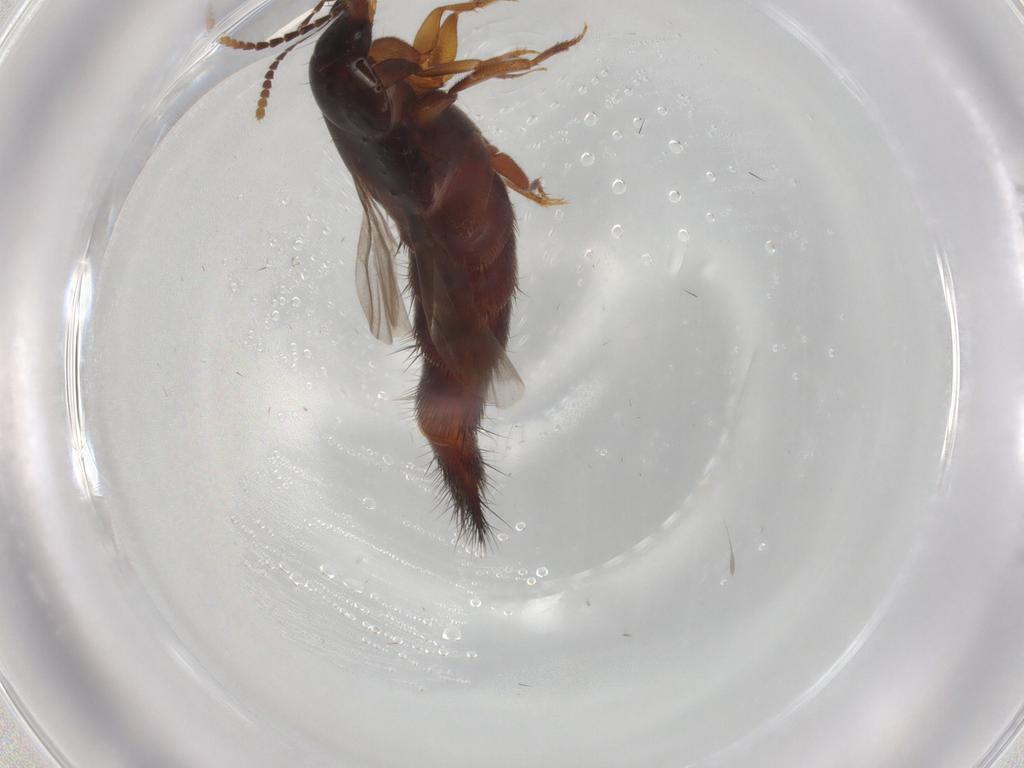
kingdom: Animalia
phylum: Arthropoda
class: Insecta
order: Coleoptera
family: Staphylinidae
